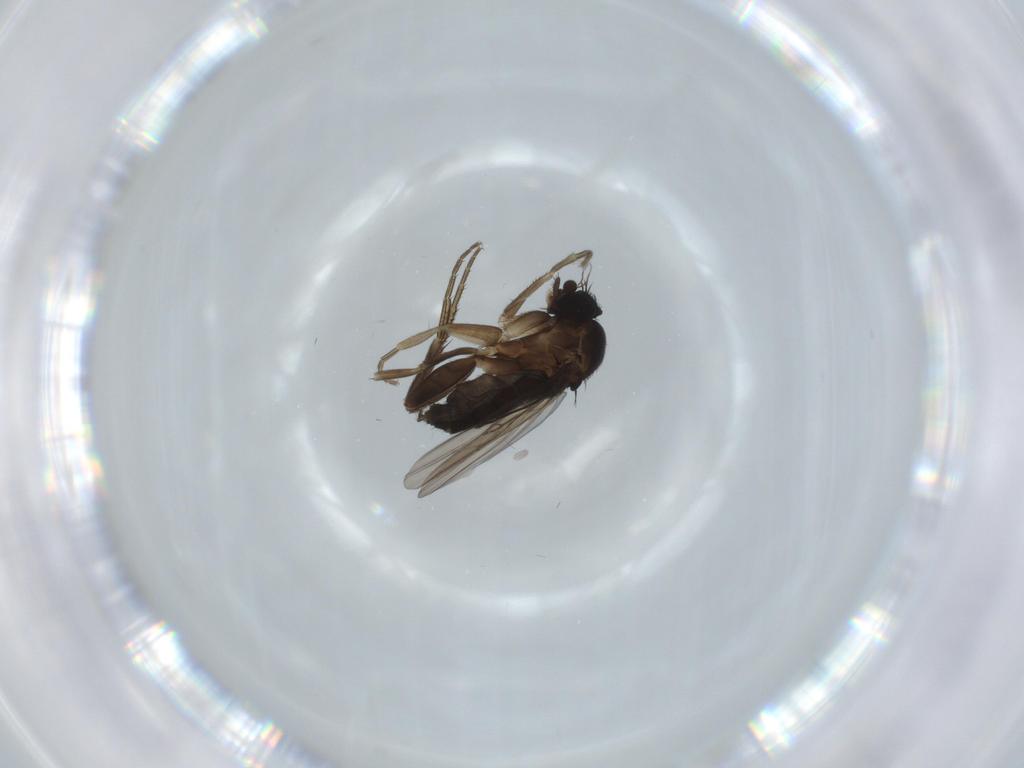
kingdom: Animalia
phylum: Arthropoda
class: Insecta
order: Diptera
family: Phoridae
